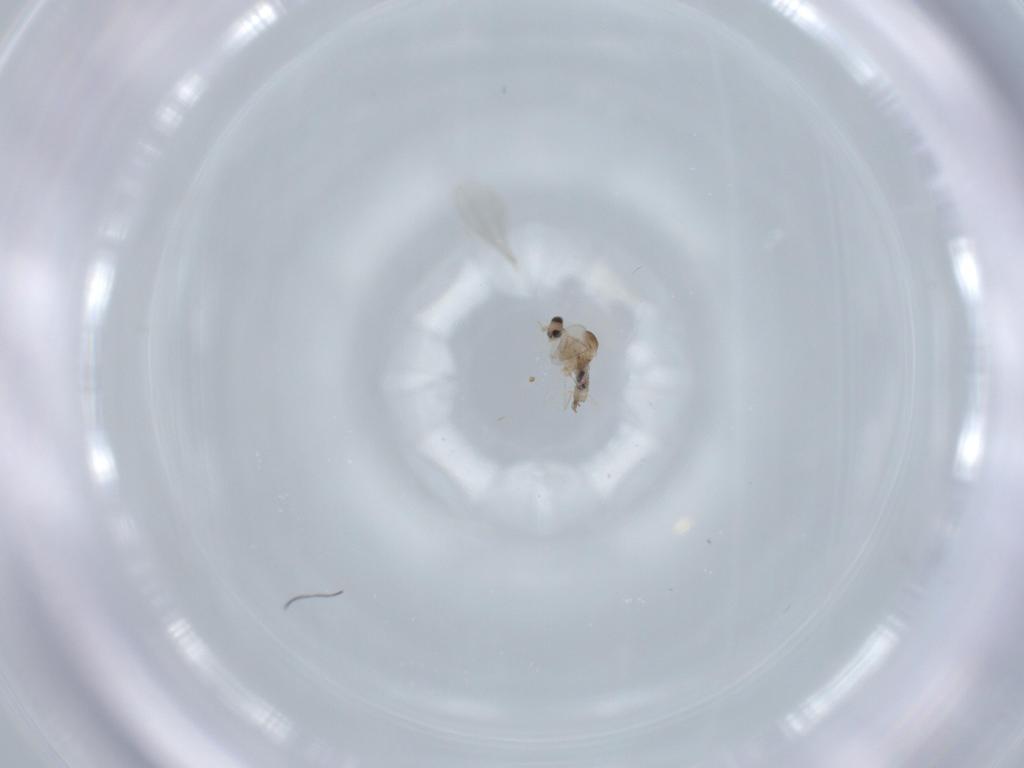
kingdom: Animalia
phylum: Arthropoda
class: Insecta
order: Diptera
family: Cecidomyiidae
